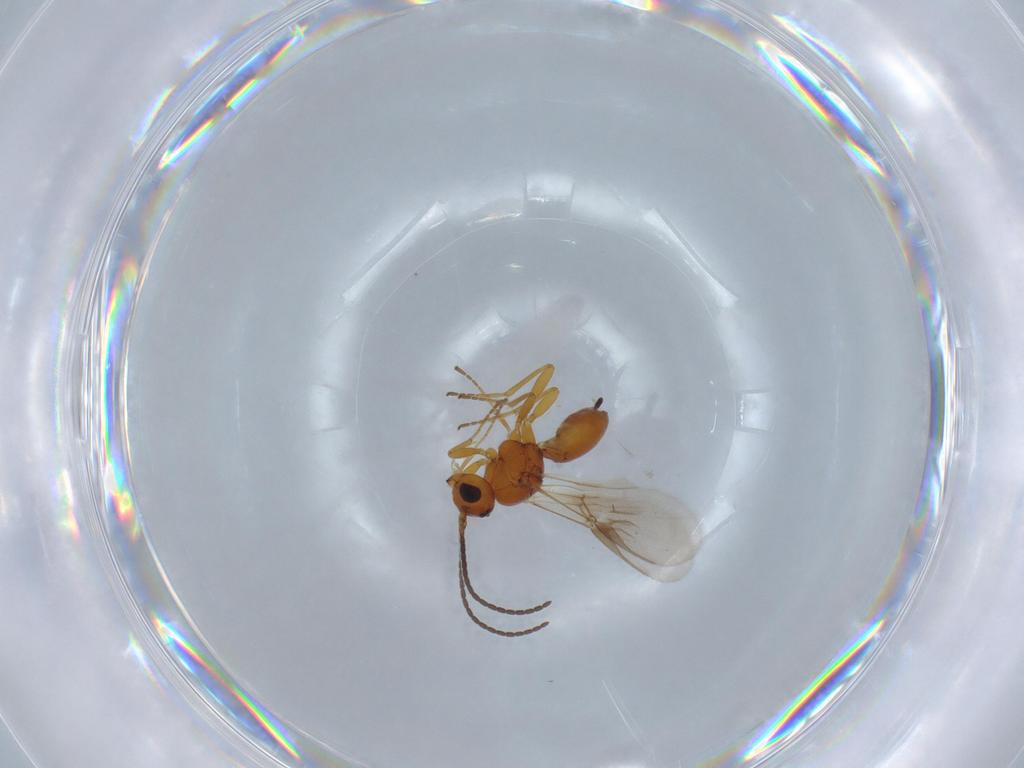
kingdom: Animalia
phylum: Arthropoda
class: Insecta
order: Hymenoptera
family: Braconidae
